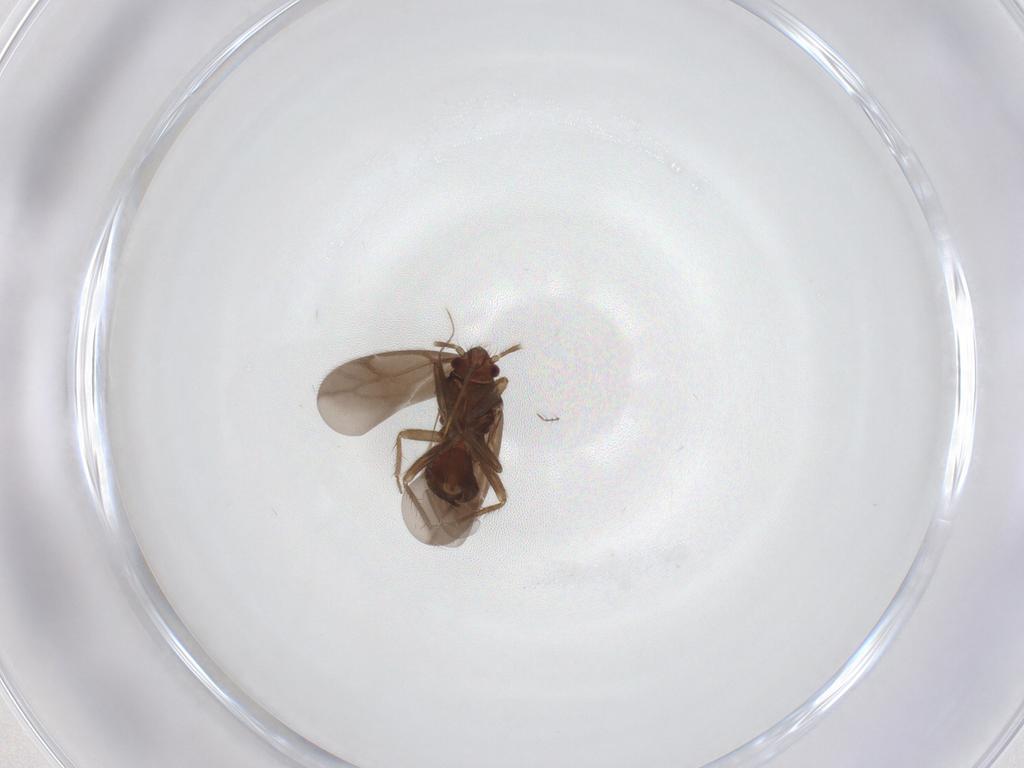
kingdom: Animalia
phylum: Arthropoda
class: Insecta
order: Hemiptera
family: Ceratocombidae
